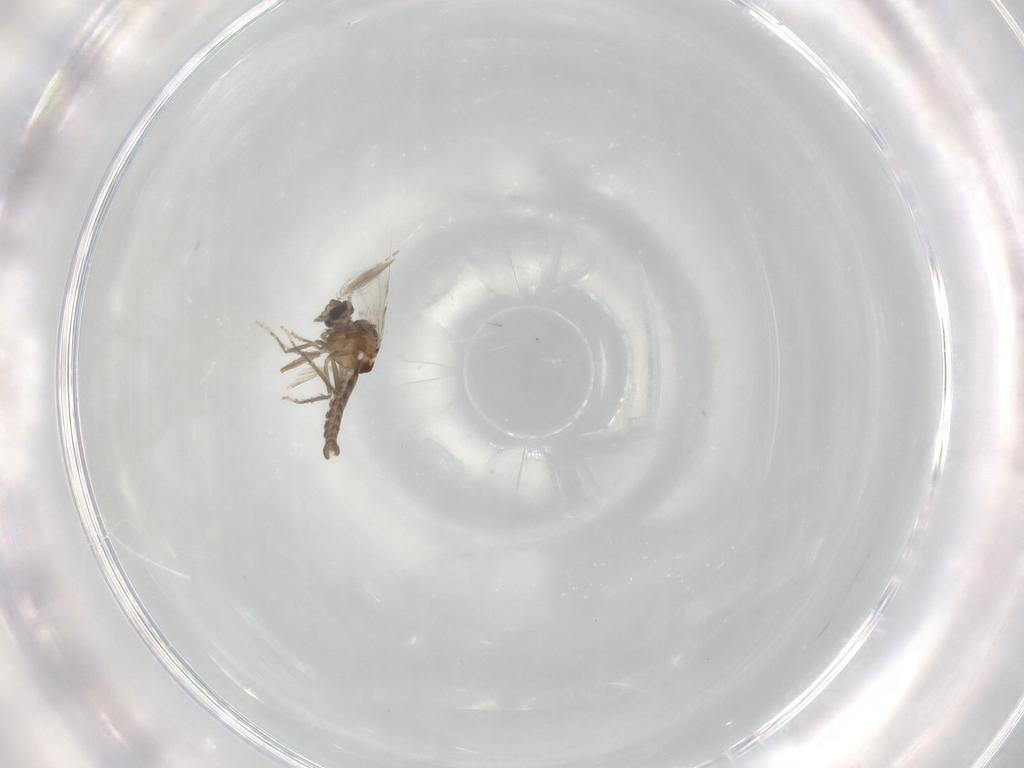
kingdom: Animalia
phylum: Arthropoda
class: Insecta
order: Diptera
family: Ceratopogonidae
